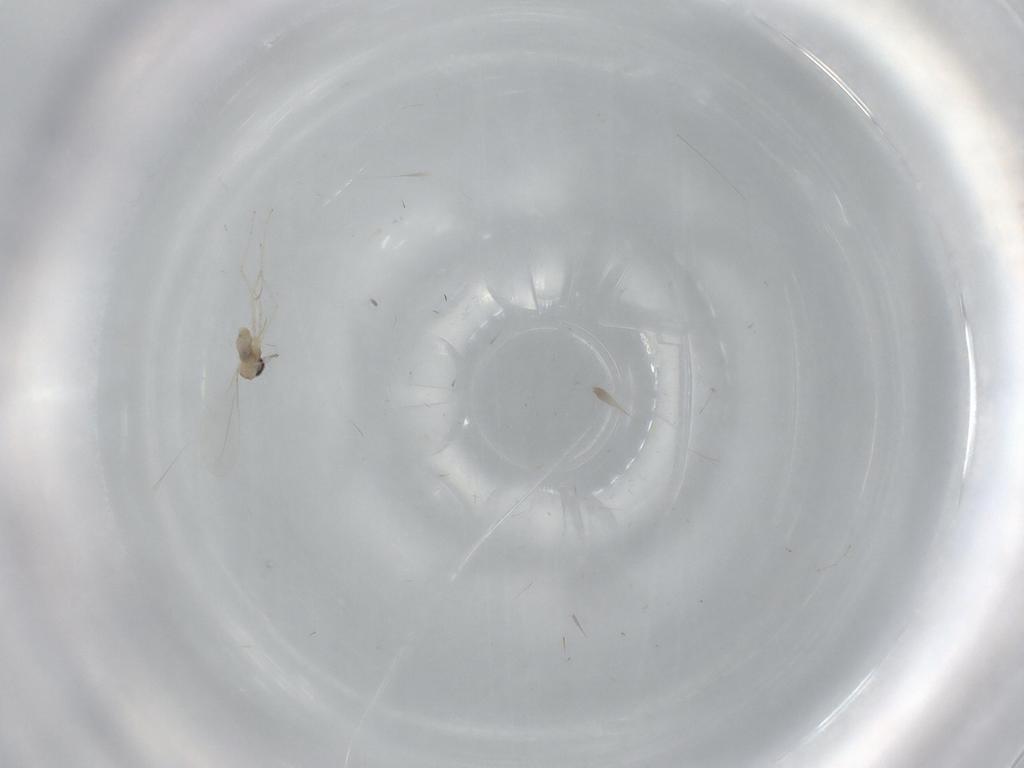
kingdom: Animalia
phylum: Arthropoda
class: Insecta
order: Diptera
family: Cecidomyiidae
